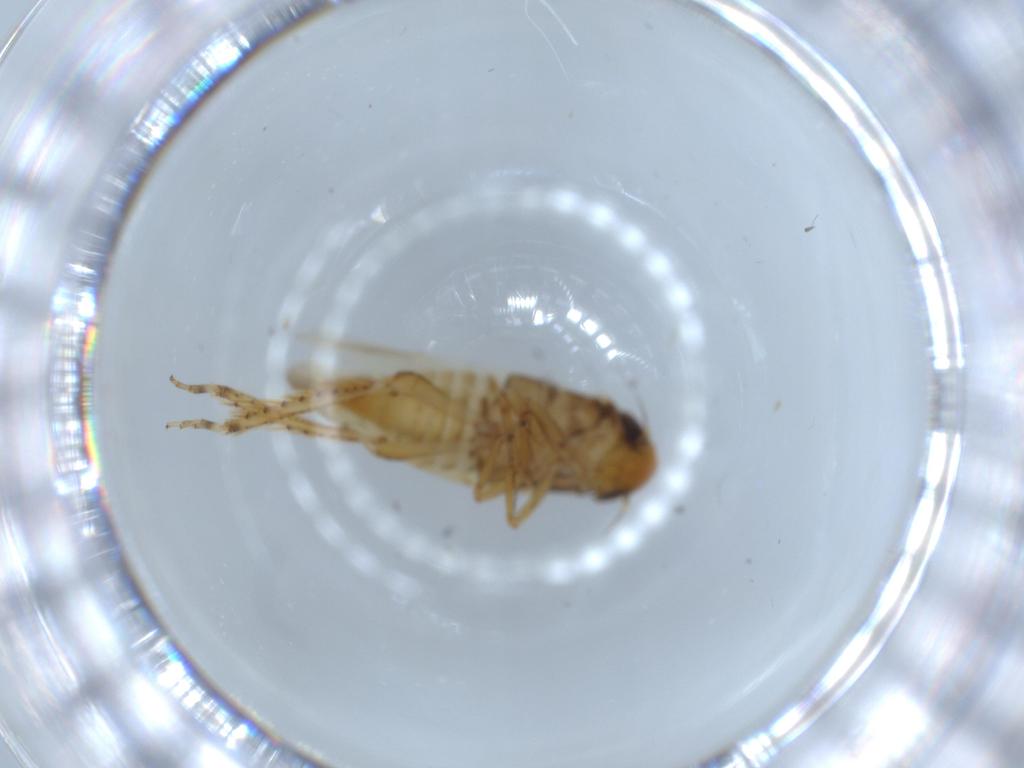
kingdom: Animalia
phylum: Arthropoda
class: Insecta
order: Hemiptera
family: Cicadellidae
